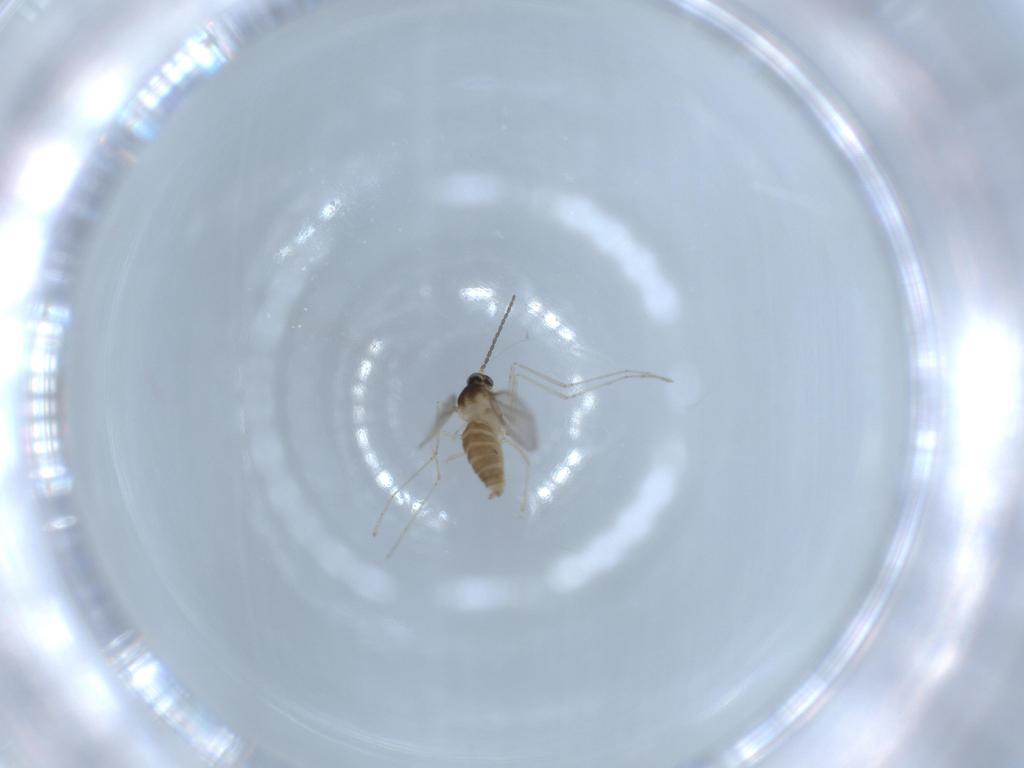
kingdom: Animalia
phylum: Arthropoda
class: Insecta
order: Diptera
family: Cecidomyiidae
